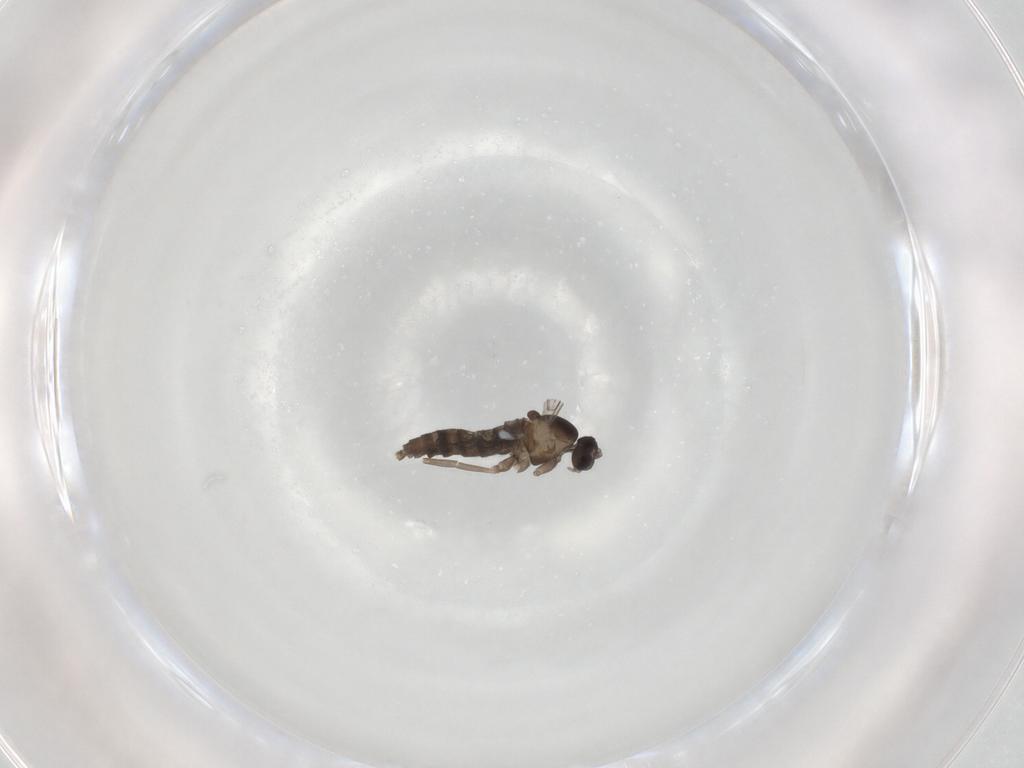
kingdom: Animalia
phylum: Arthropoda
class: Insecta
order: Diptera
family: Cecidomyiidae
